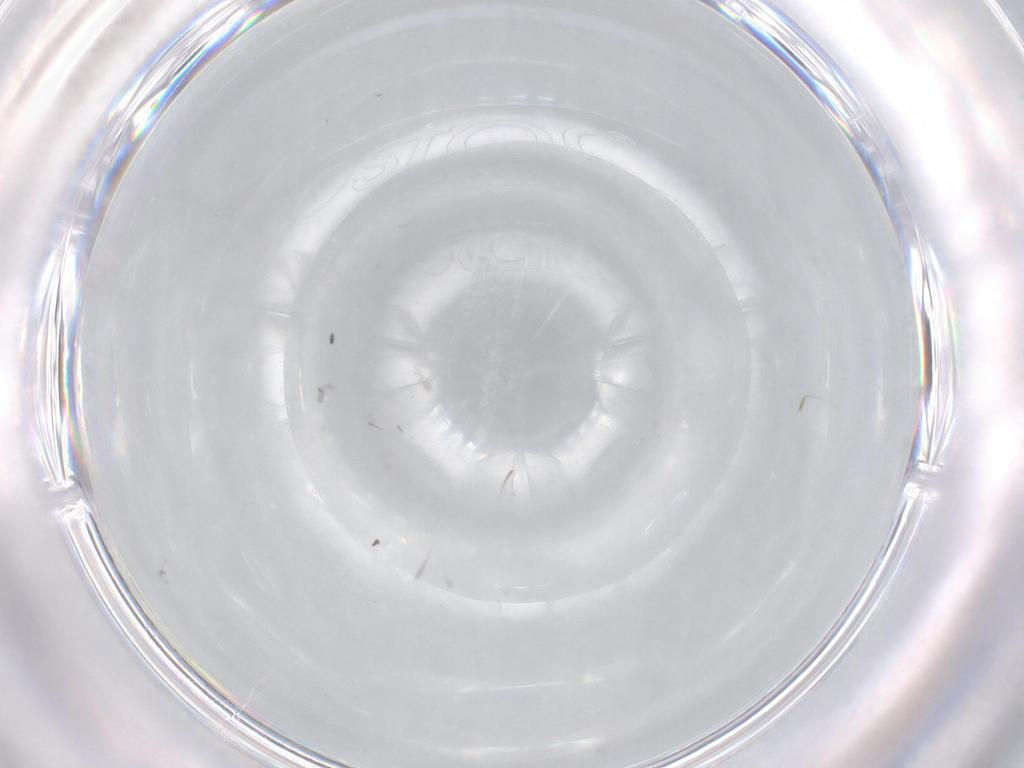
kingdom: Animalia
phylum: Arthropoda
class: Insecta
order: Diptera
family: Chironomidae
